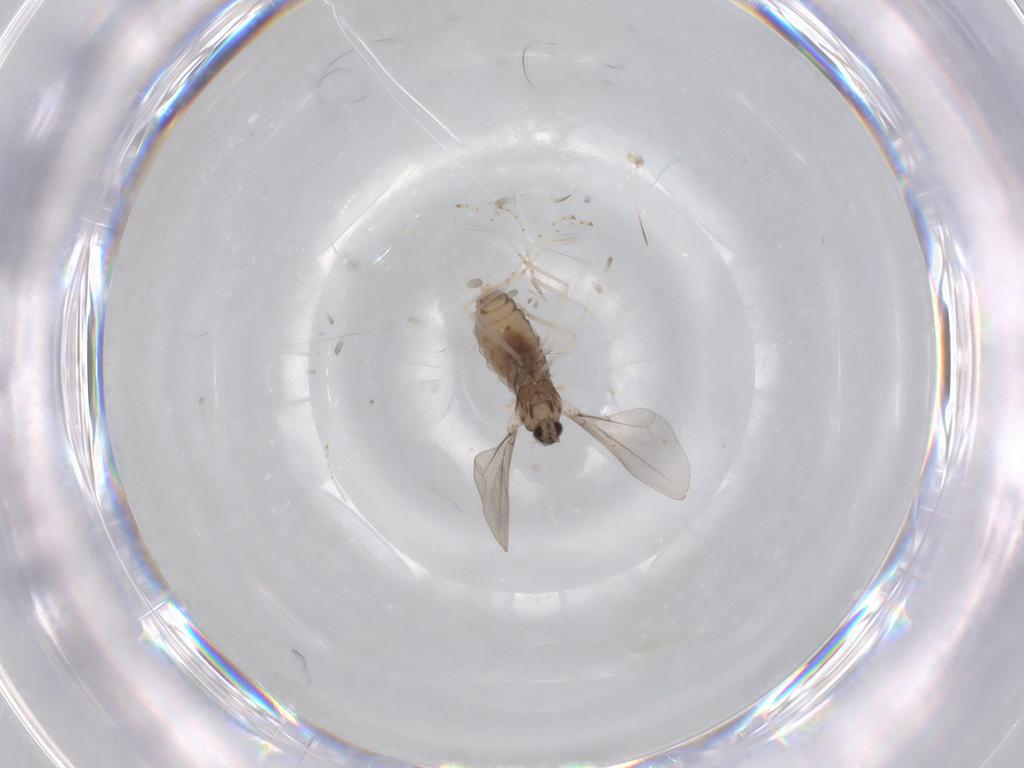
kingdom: Animalia
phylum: Arthropoda
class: Insecta
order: Diptera
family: Cecidomyiidae
